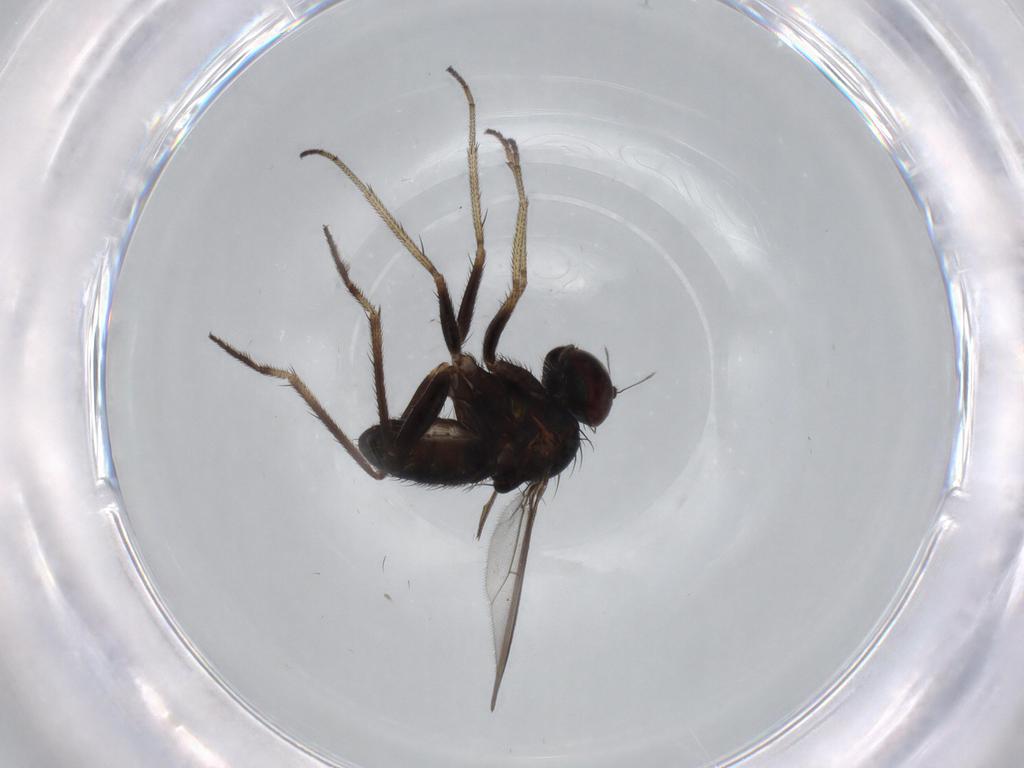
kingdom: Animalia
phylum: Arthropoda
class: Insecta
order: Diptera
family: Dolichopodidae
